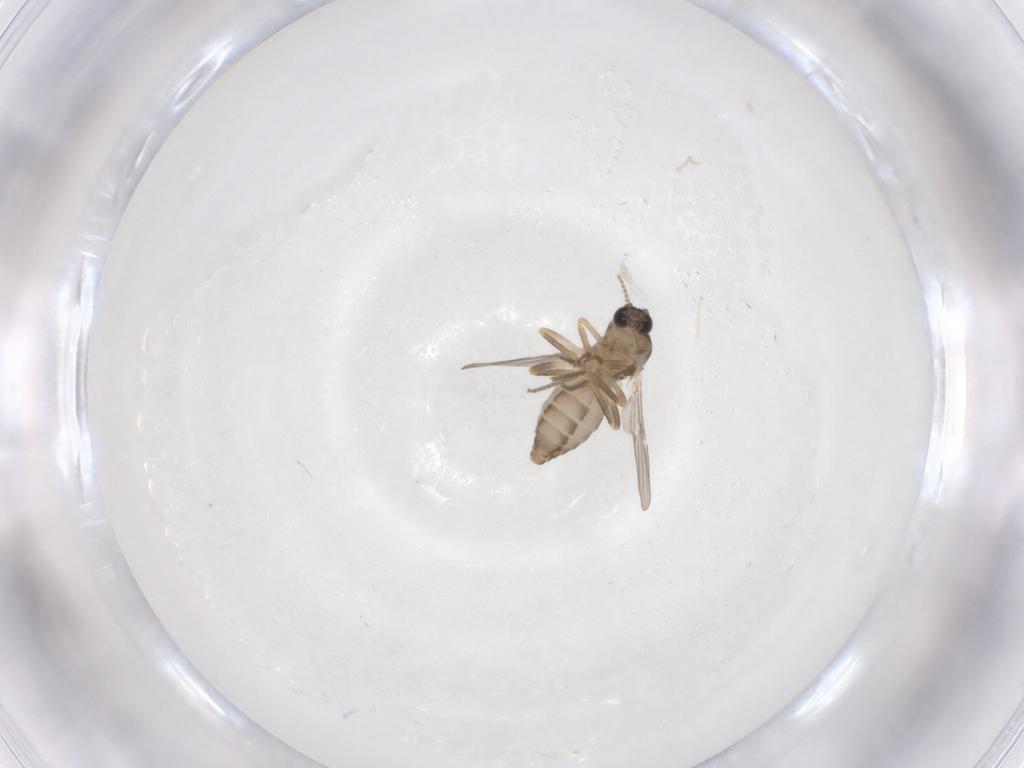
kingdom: Animalia
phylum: Arthropoda
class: Insecta
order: Diptera
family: Ceratopogonidae
